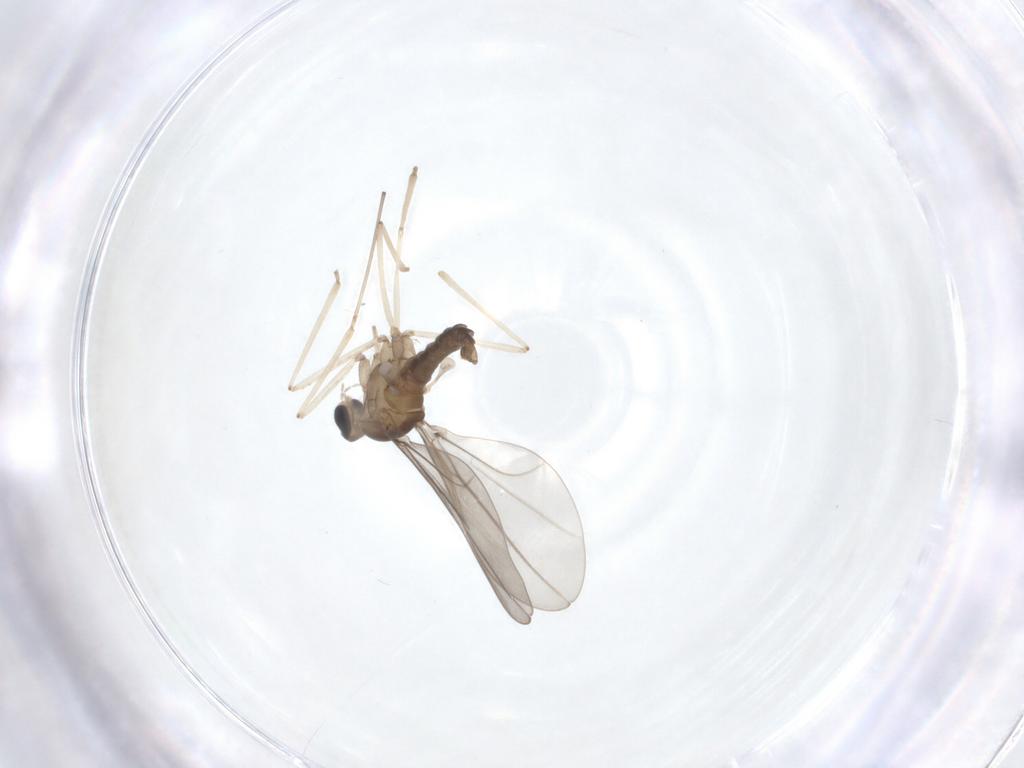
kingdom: Animalia
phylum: Arthropoda
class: Insecta
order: Diptera
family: Cecidomyiidae
